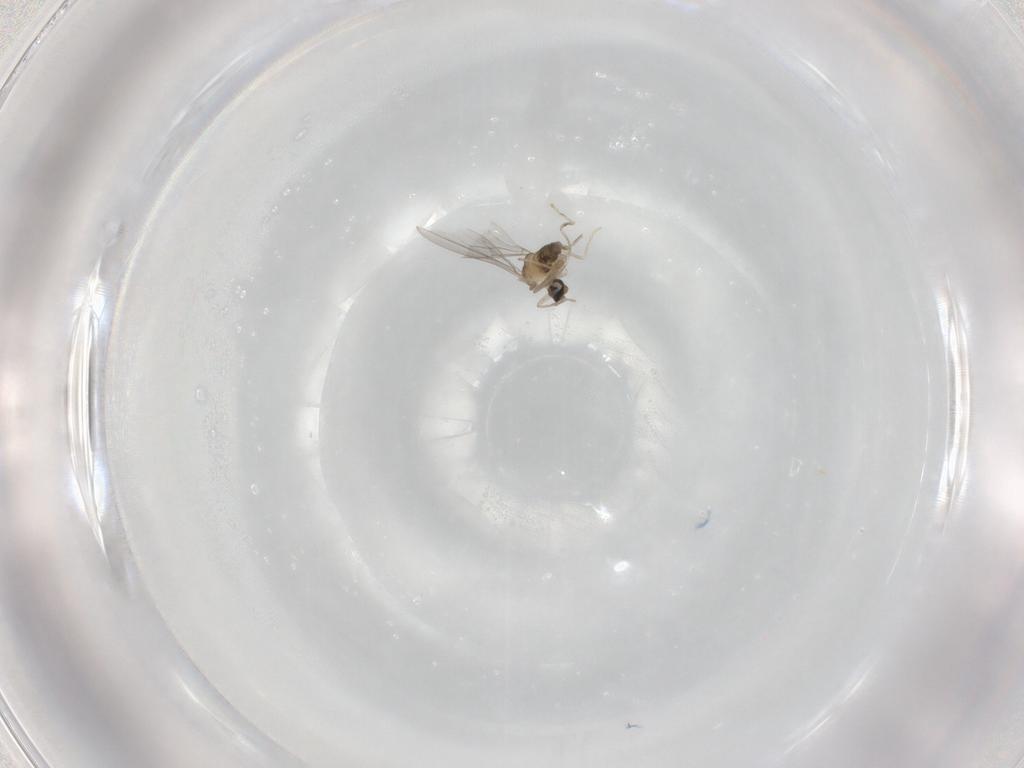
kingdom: Animalia
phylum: Arthropoda
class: Insecta
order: Diptera
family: Cecidomyiidae
